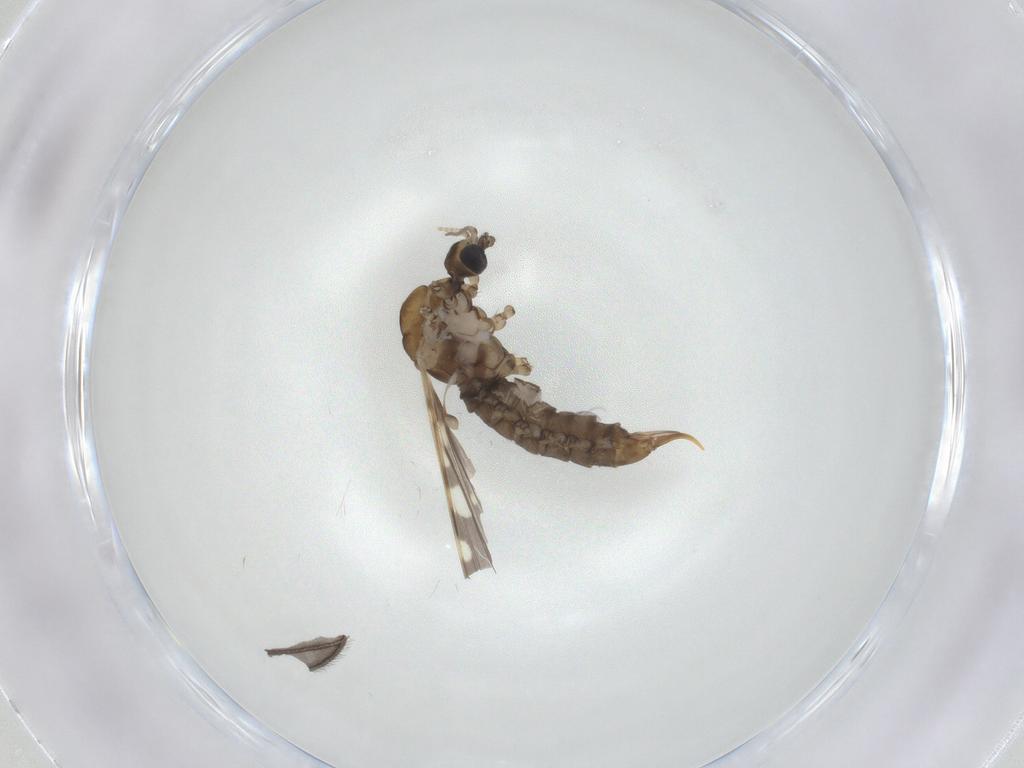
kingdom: Animalia
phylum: Arthropoda
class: Insecta
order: Diptera
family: Limoniidae
